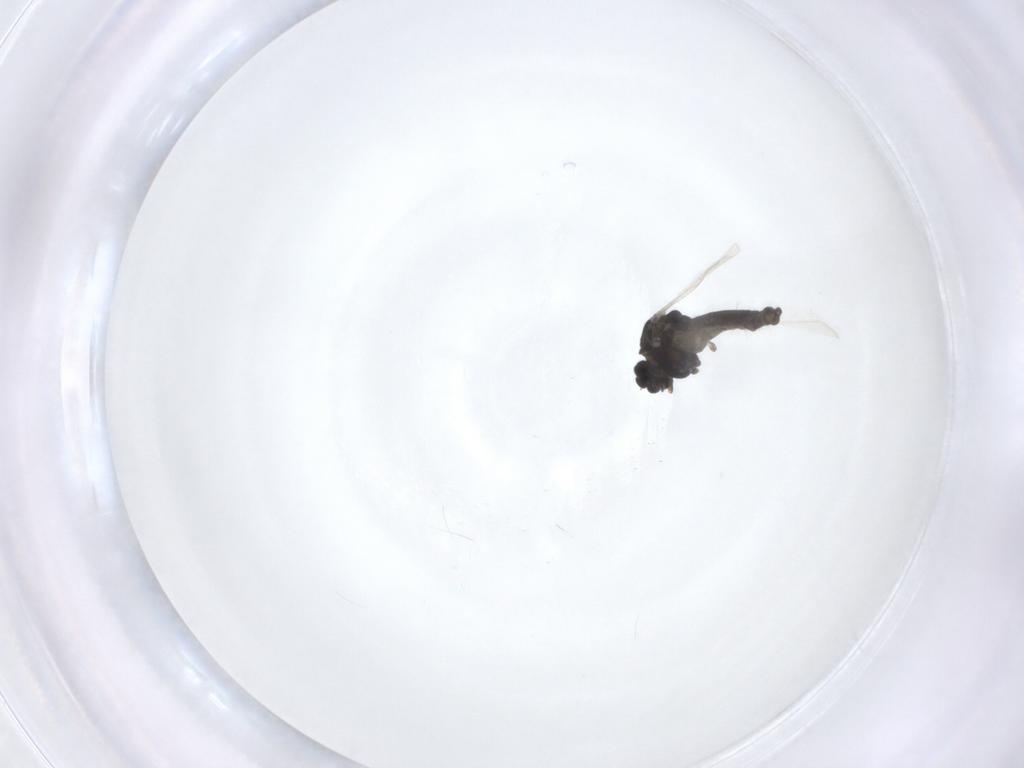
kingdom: Animalia
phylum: Arthropoda
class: Insecta
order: Diptera
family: Chironomidae
